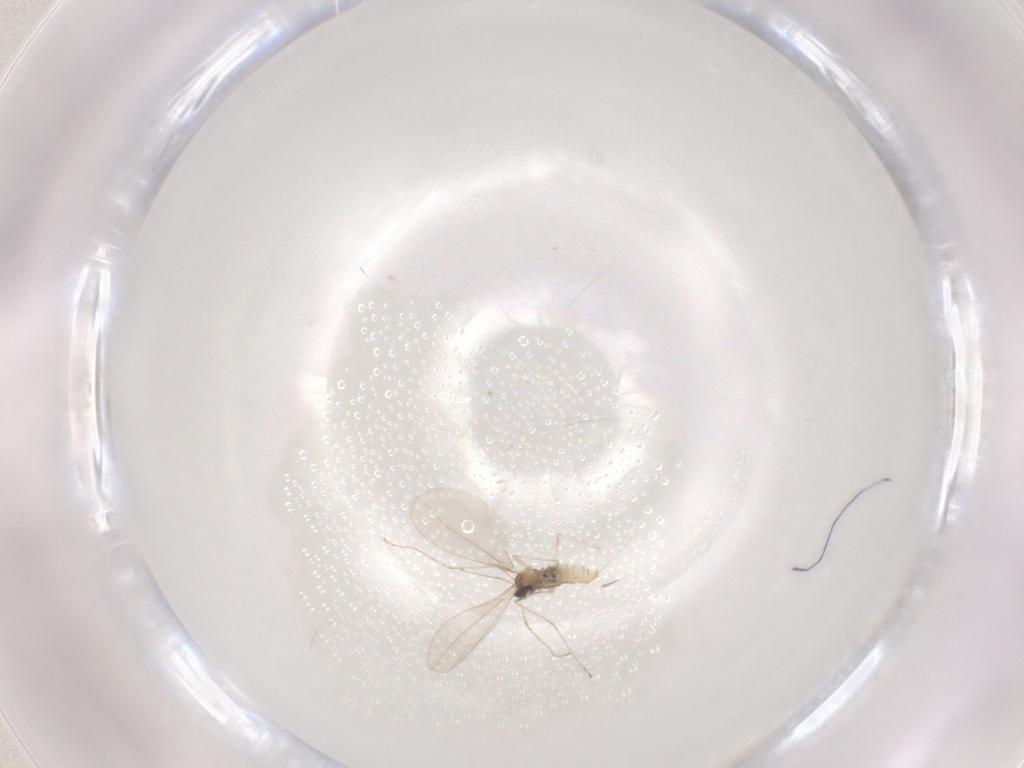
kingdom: Animalia
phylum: Arthropoda
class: Insecta
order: Diptera
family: Cecidomyiidae
